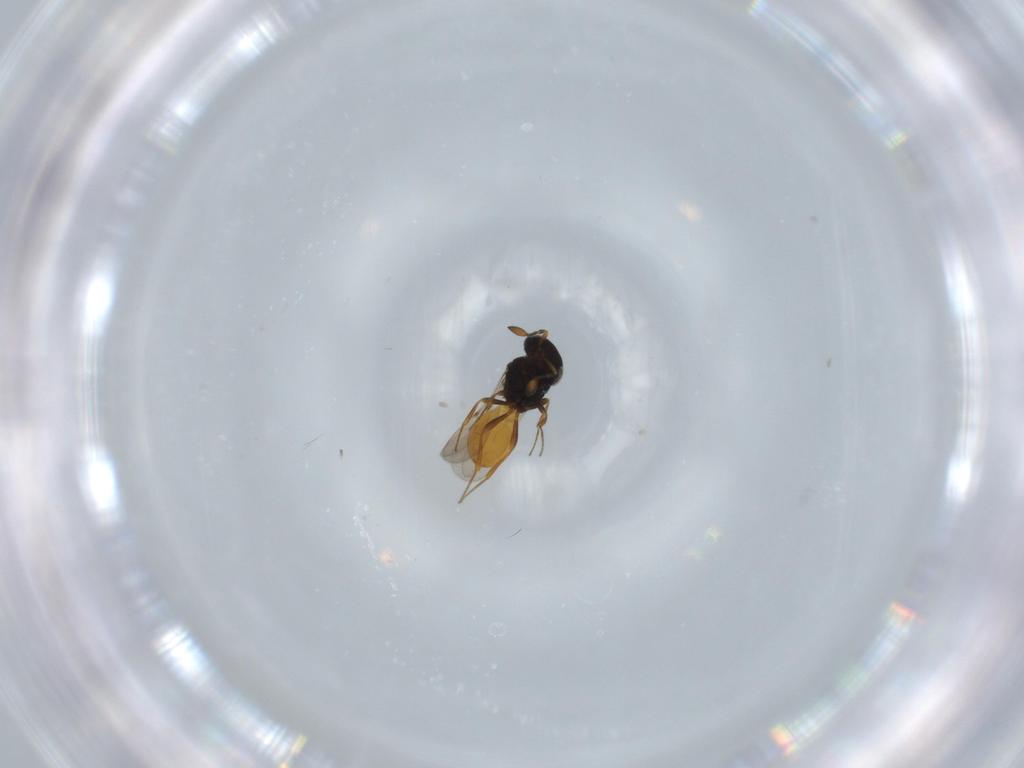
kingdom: Animalia
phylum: Arthropoda
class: Insecta
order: Hymenoptera
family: Scelionidae
